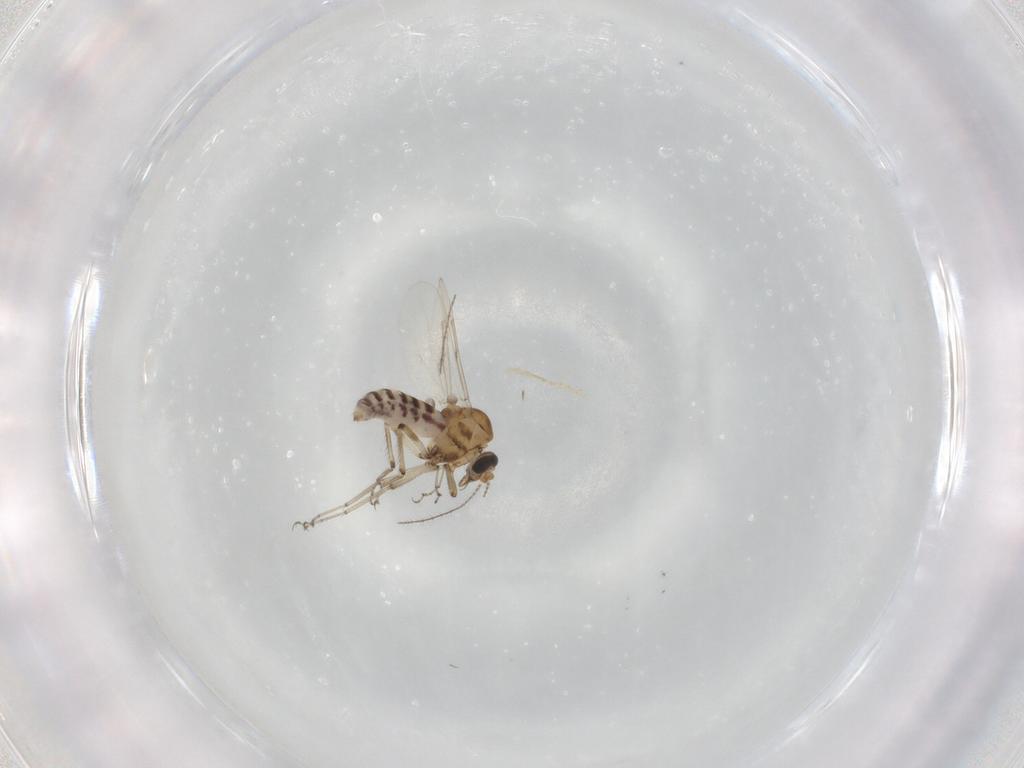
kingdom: Animalia
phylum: Arthropoda
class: Insecta
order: Diptera
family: Ceratopogonidae
